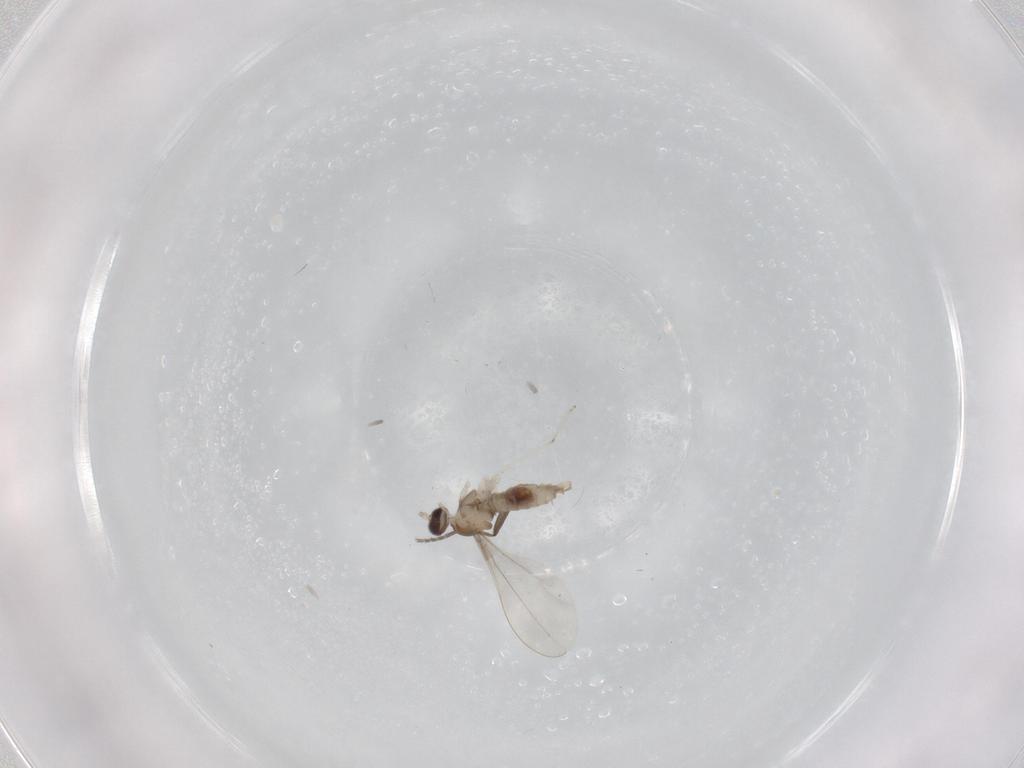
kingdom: Animalia
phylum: Arthropoda
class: Insecta
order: Diptera
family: Cecidomyiidae
